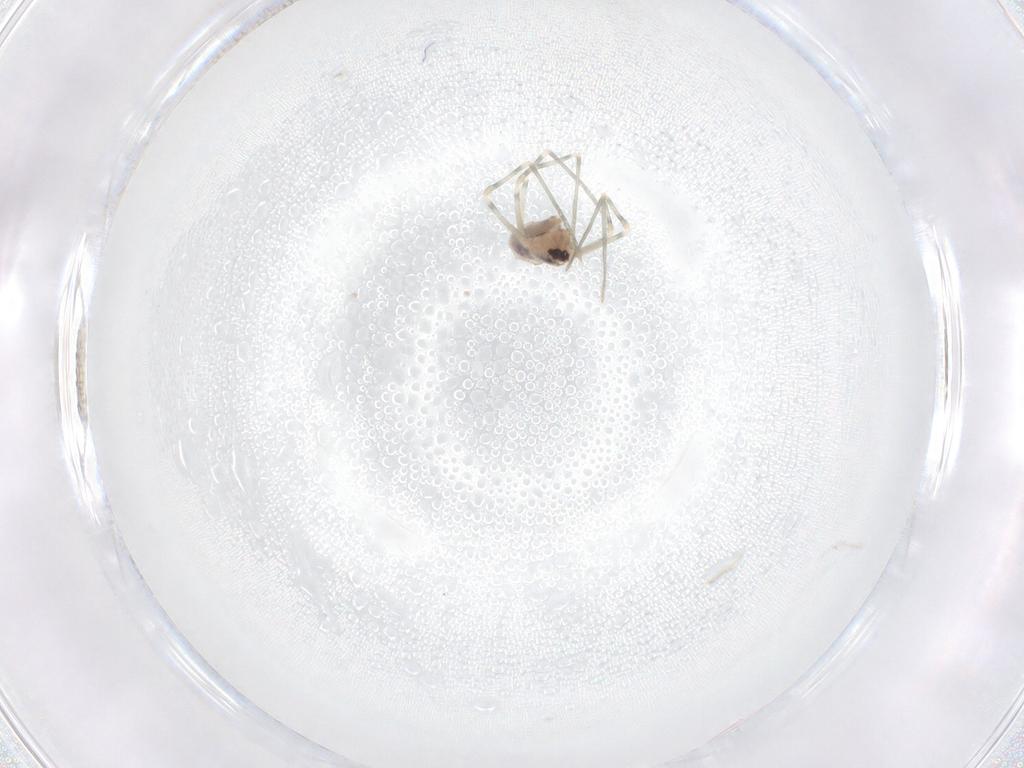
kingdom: Animalia
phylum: Arthropoda
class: Arachnida
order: Araneae
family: Pholcidae
